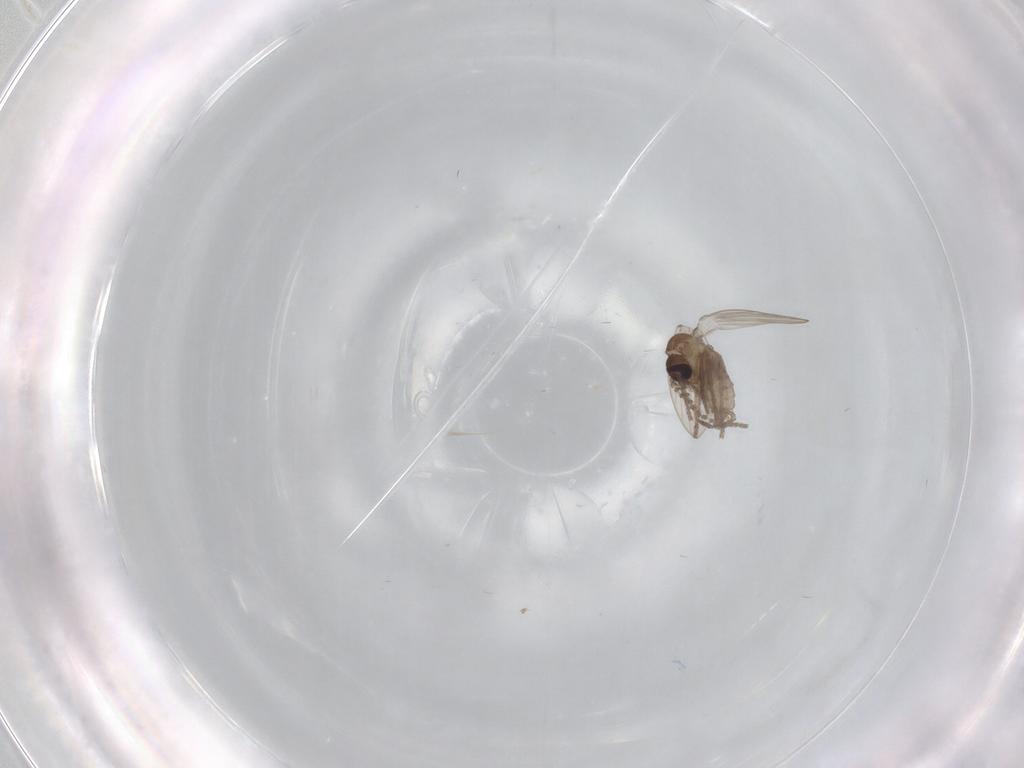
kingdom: Animalia
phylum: Arthropoda
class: Insecta
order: Diptera
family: Psychodidae
